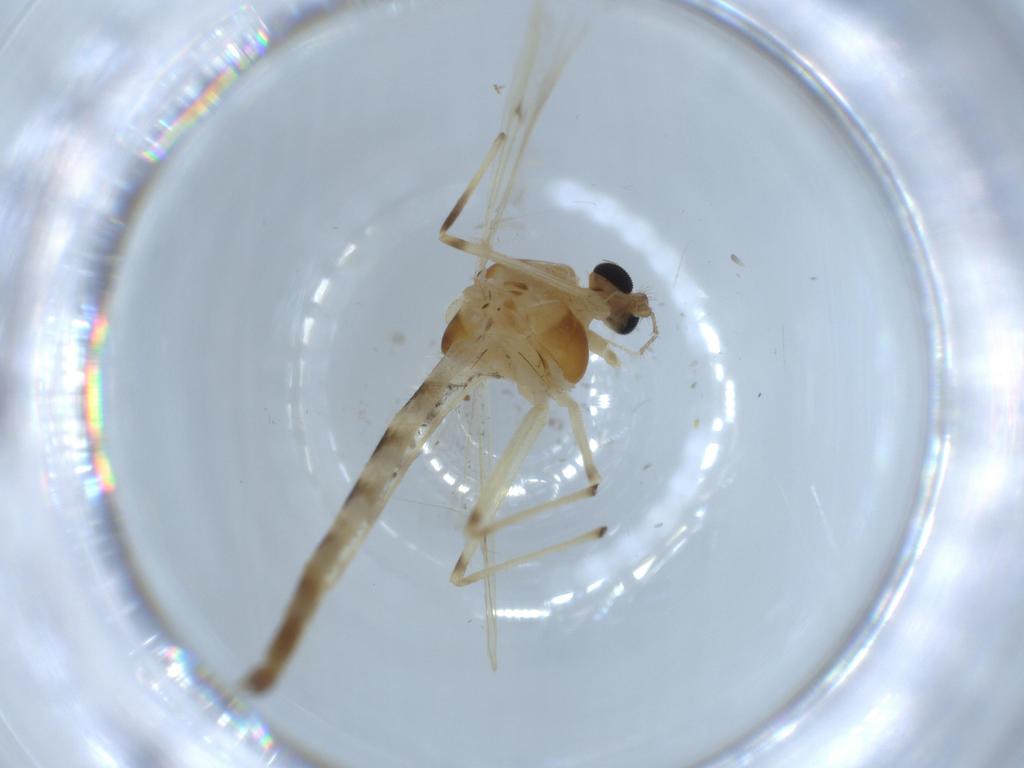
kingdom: Animalia
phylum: Arthropoda
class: Insecta
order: Diptera
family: Chironomidae
